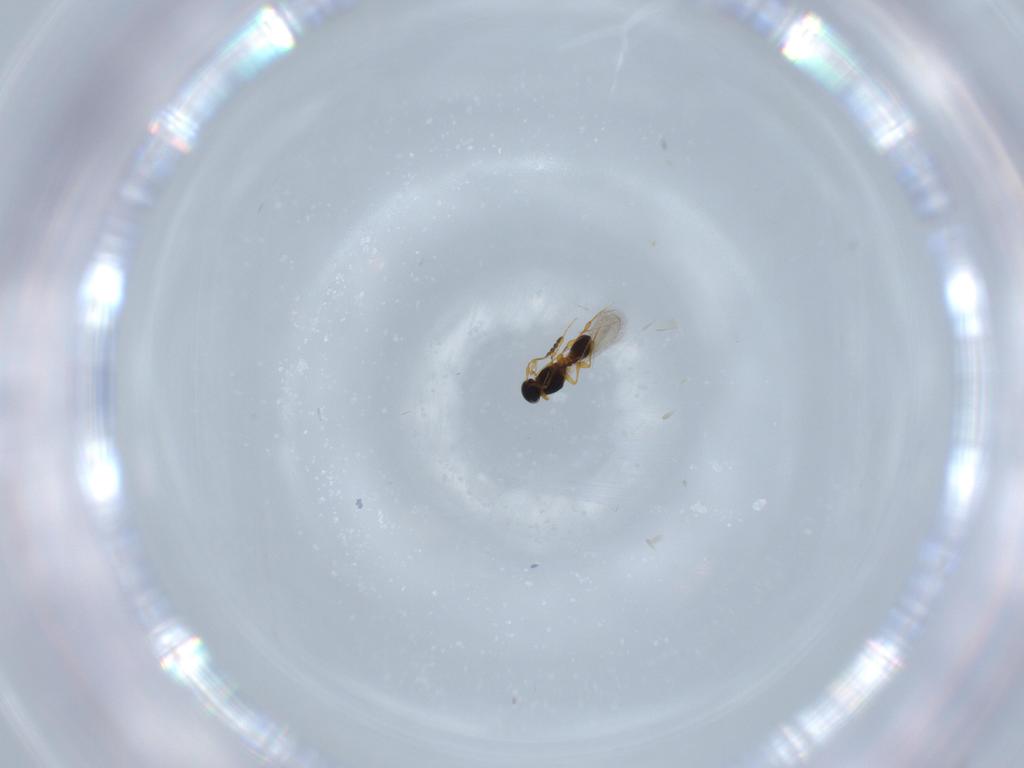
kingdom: Animalia
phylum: Arthropoda
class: Insecta
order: Hymenoptera
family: Platygastridae
